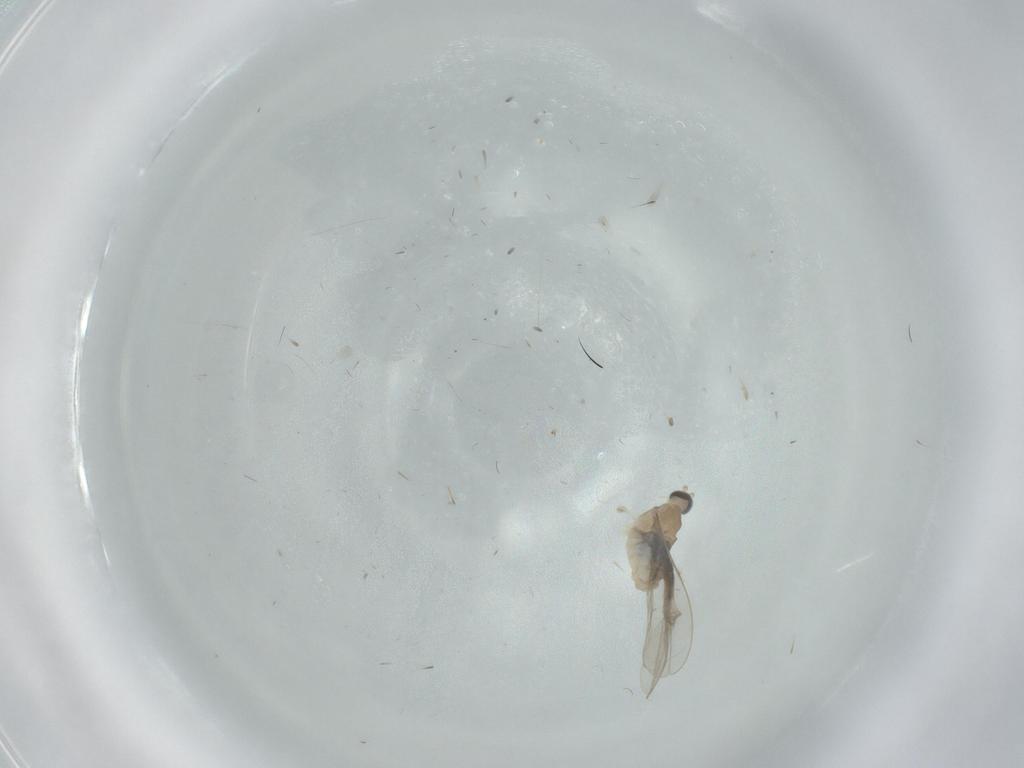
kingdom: Animalia
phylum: Arthropoda
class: Insecta
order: Diptera
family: Cecidomyiidae
